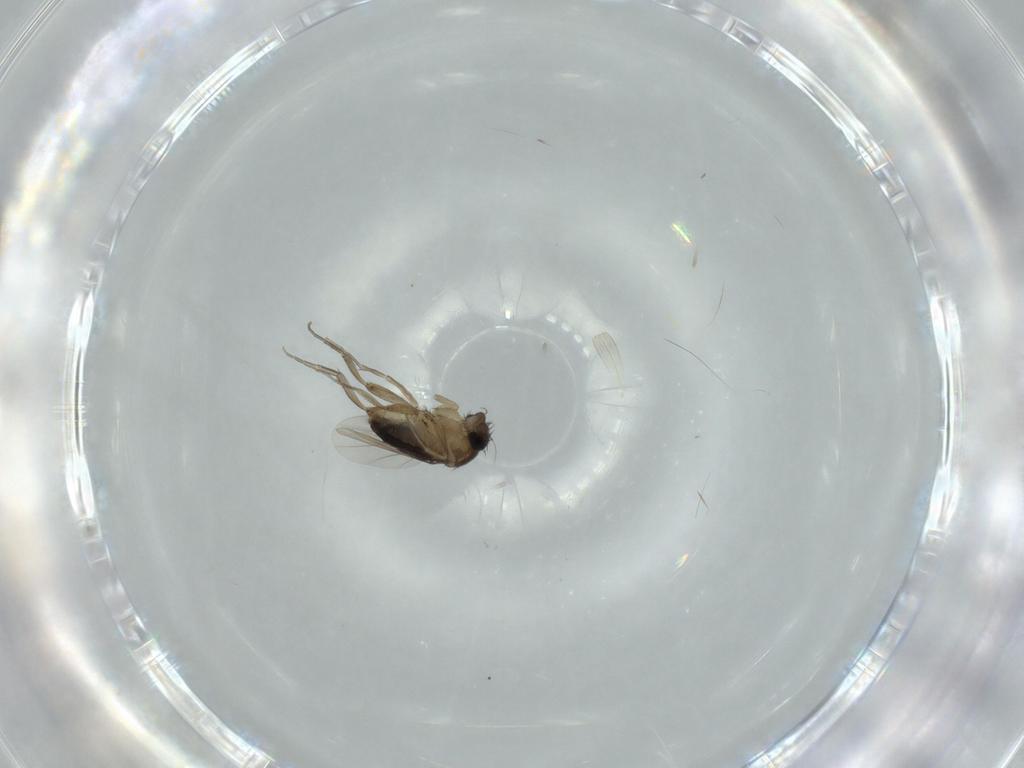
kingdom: Animalia
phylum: Arthropoda
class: Insecta
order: Diptera
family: Phoridae
